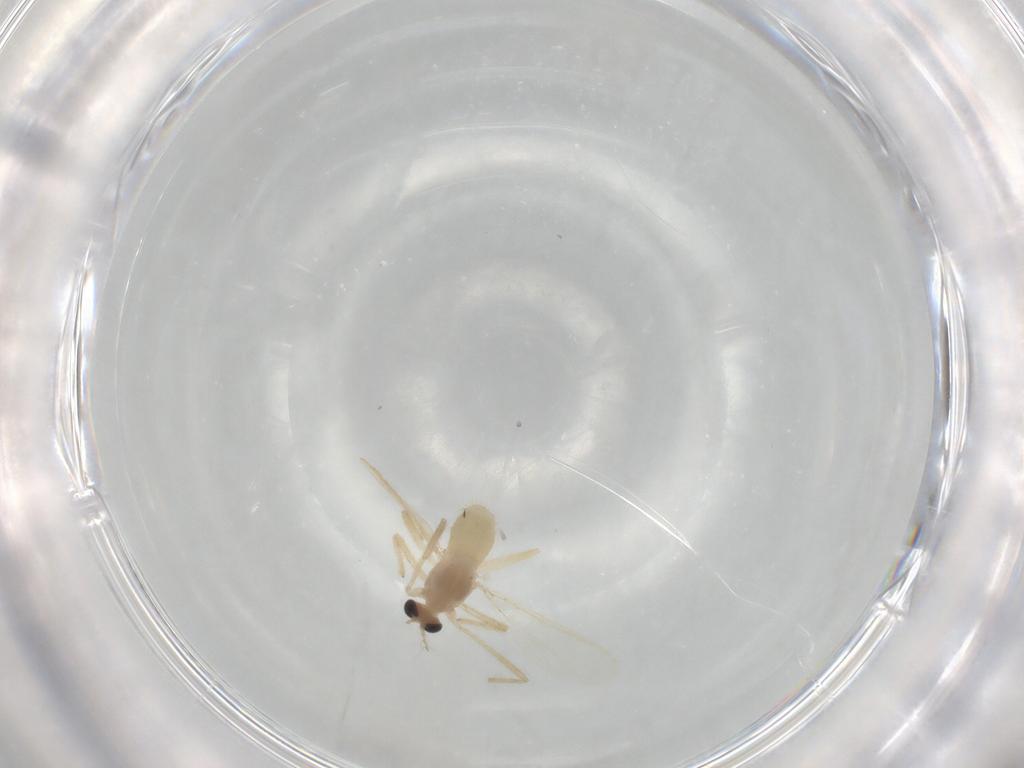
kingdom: Animalia
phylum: Arthropoda
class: Insecta
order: Diptera
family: Chironomidae
